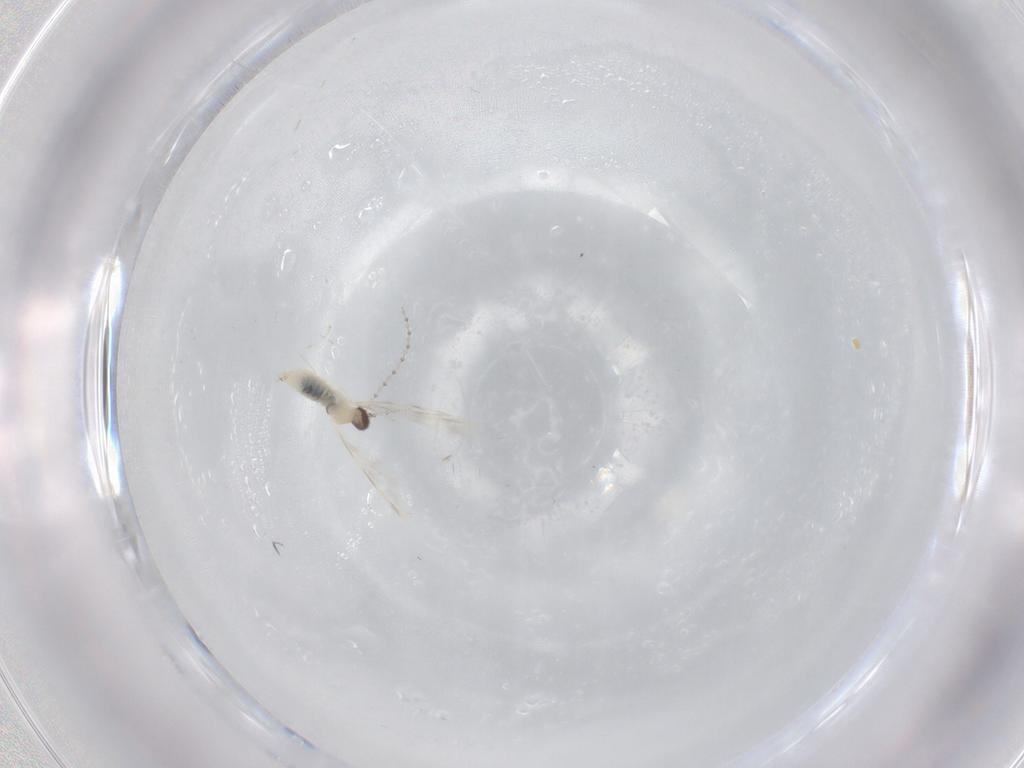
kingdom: Animalia
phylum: Arthropoda
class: Insecta
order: Diptera
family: Cecidomyiidae
